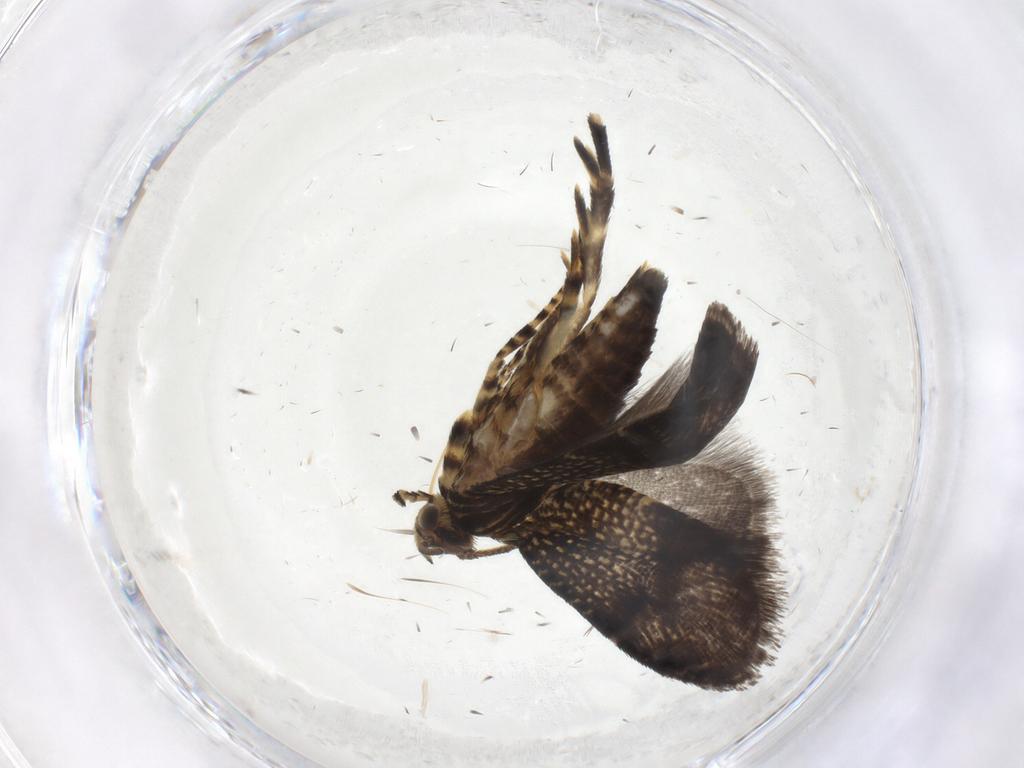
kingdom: Animalia
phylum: Arthropoda
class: Insecta
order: Lepidoptera
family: Geometridae
